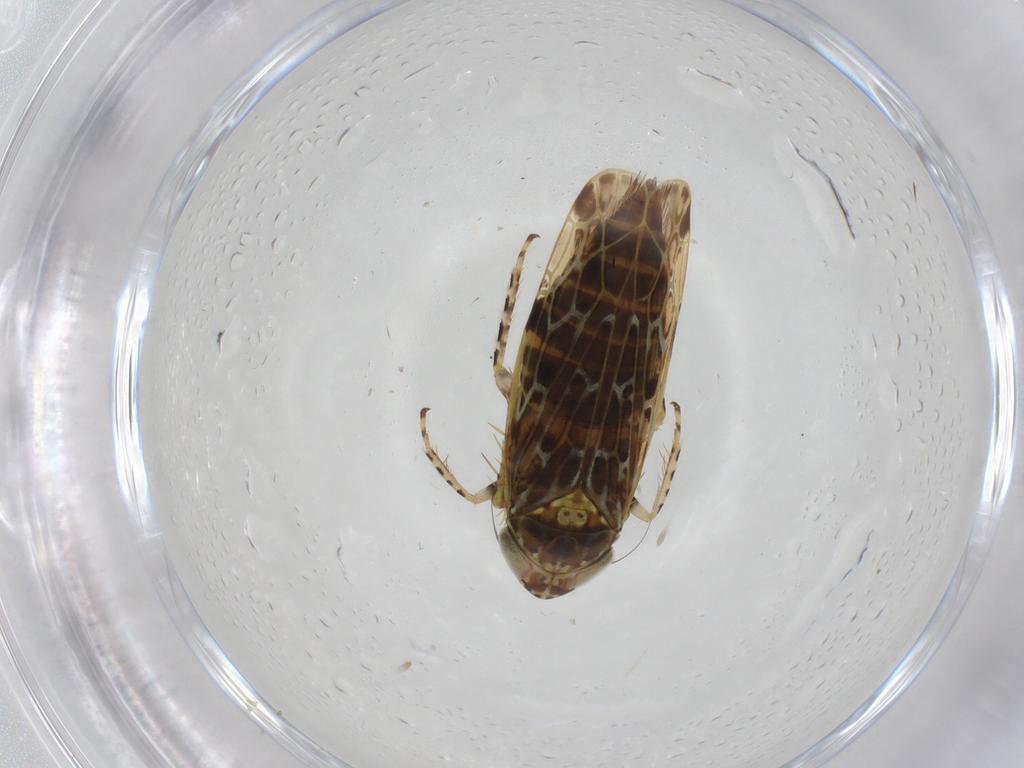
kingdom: Animalia
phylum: Arthropoda
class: Insecta
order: Hemiptera
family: Cicadellidae
